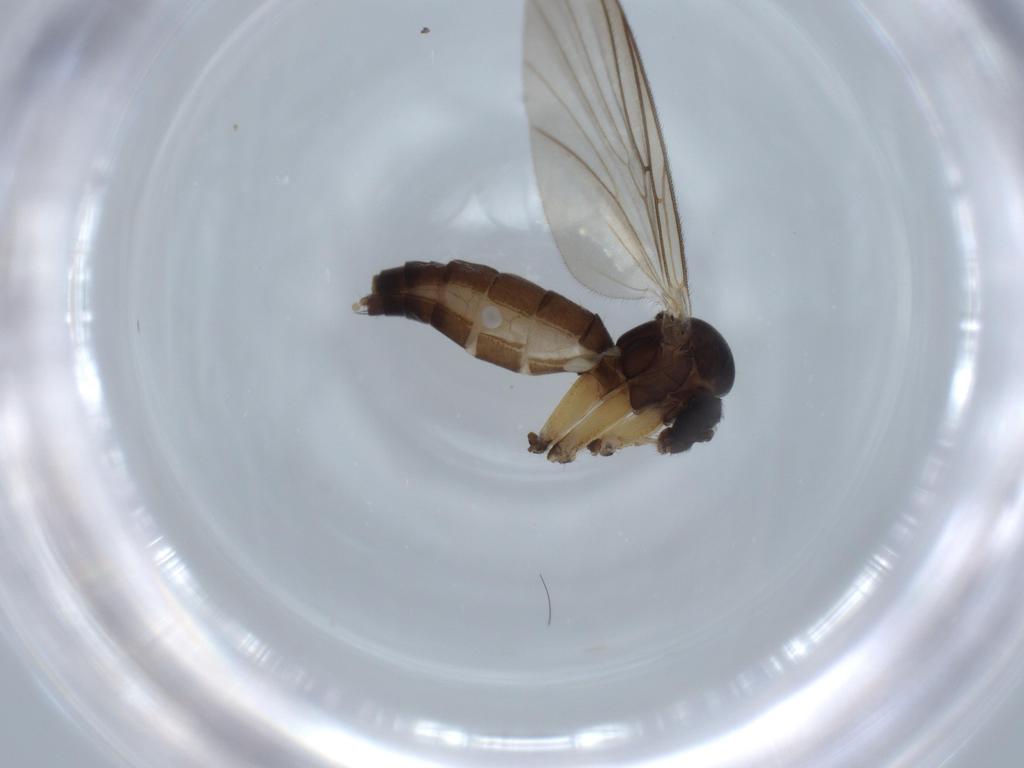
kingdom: Animalia
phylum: Arthropoda
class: Insecta
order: Diptera
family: Mycetophilidae
